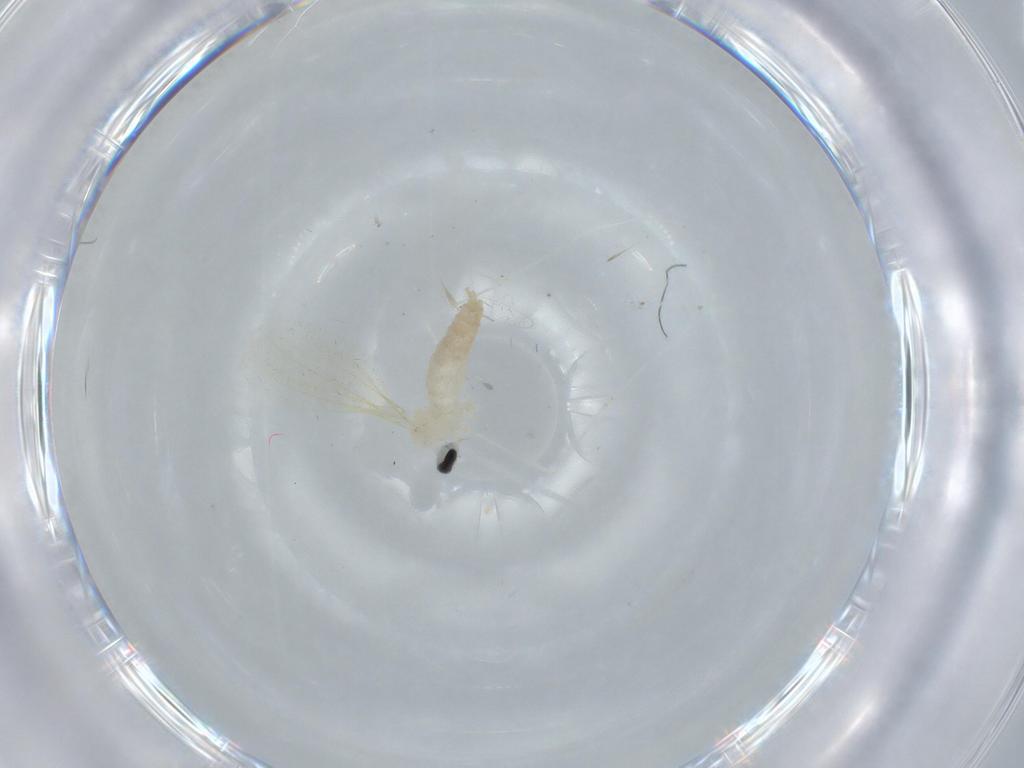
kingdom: Animalia
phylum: Arthropoda
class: Insecta
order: Diptera
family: Cecidomyiidae
